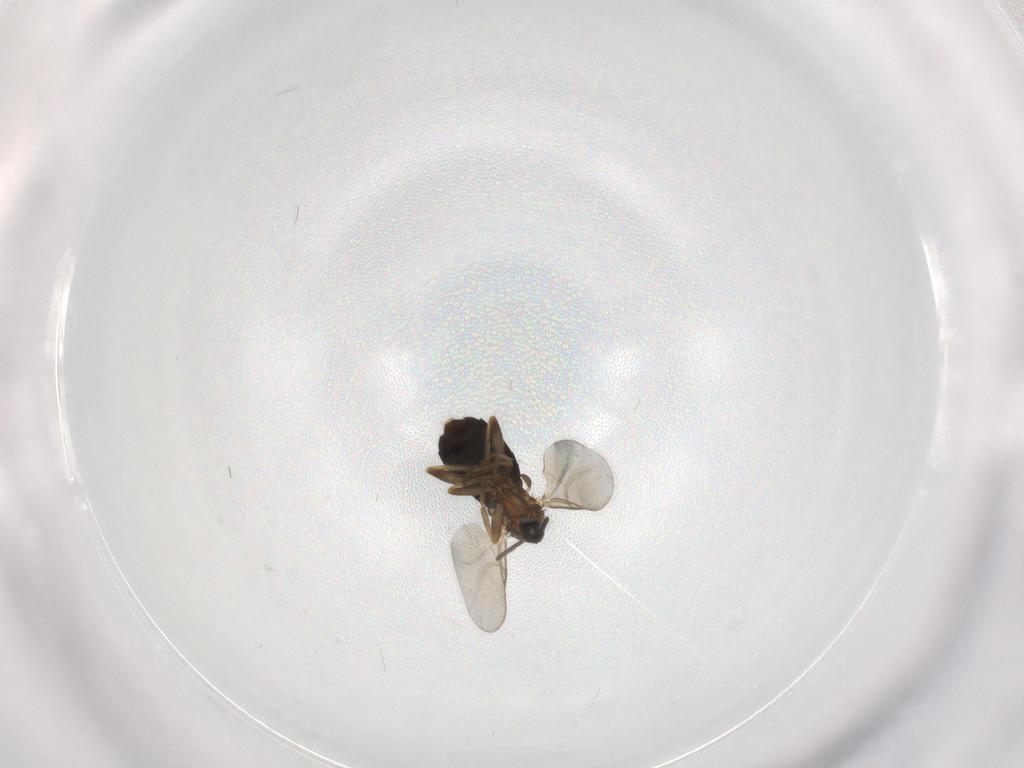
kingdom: Animalia
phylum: Arthropoda
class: Insecta
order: Diptera
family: Scatopsidae
